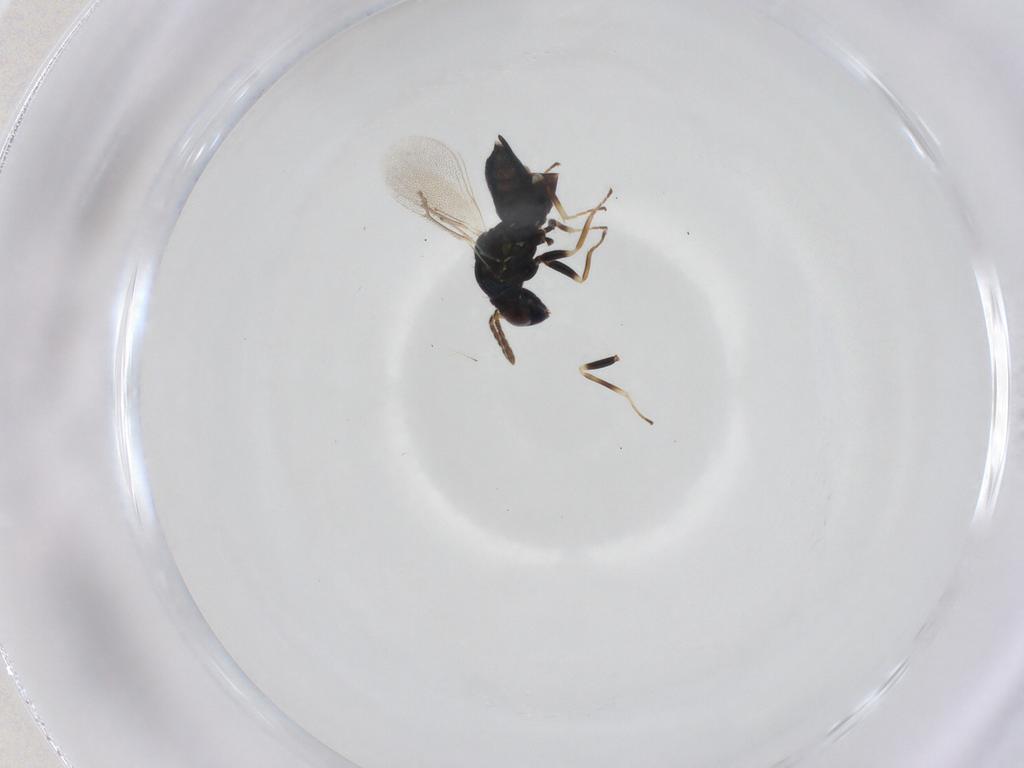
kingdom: Animalia
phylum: Arthropoda
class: Insecta
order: Hymenoptera
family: Eulophidae
